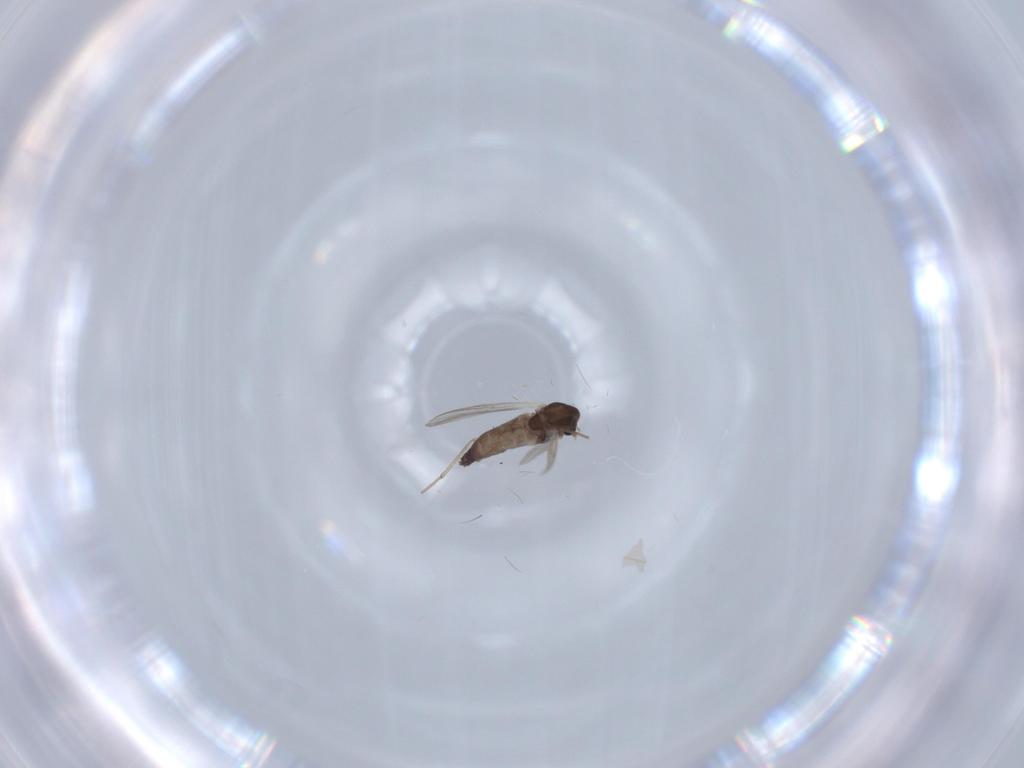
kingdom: Animalia
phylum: Arthropoda
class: Insecta
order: Diptera
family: Chironomidae
